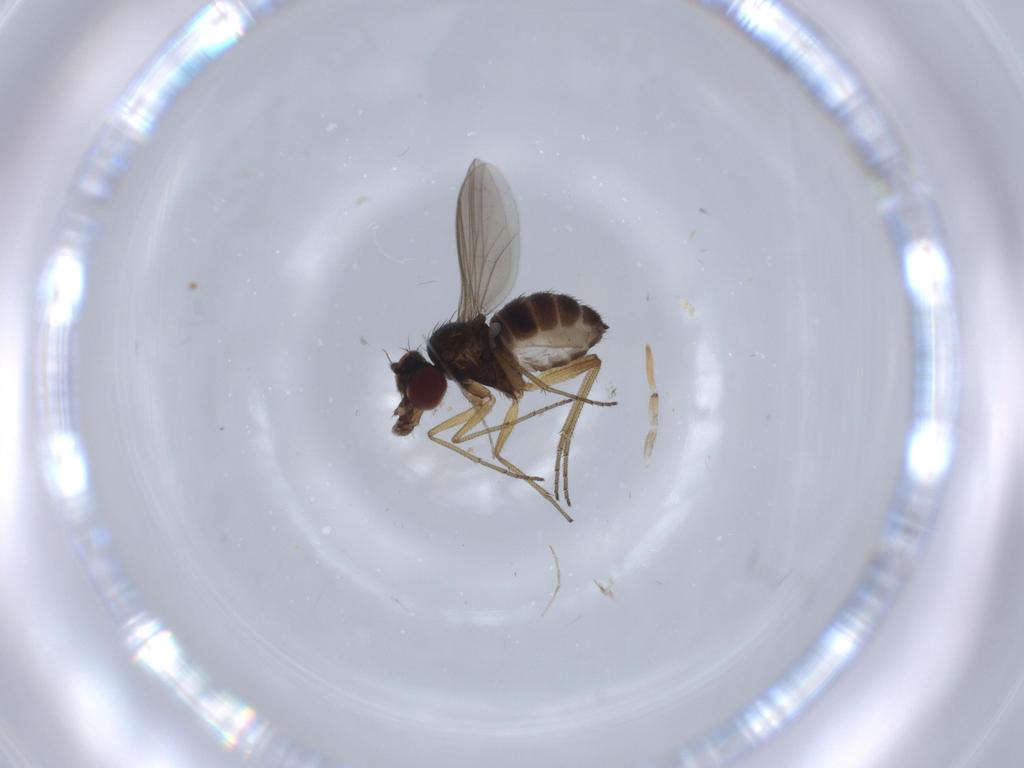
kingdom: Animalia
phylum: Arthropoda
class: Insecta
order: Diptera
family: Dolichopodidae
